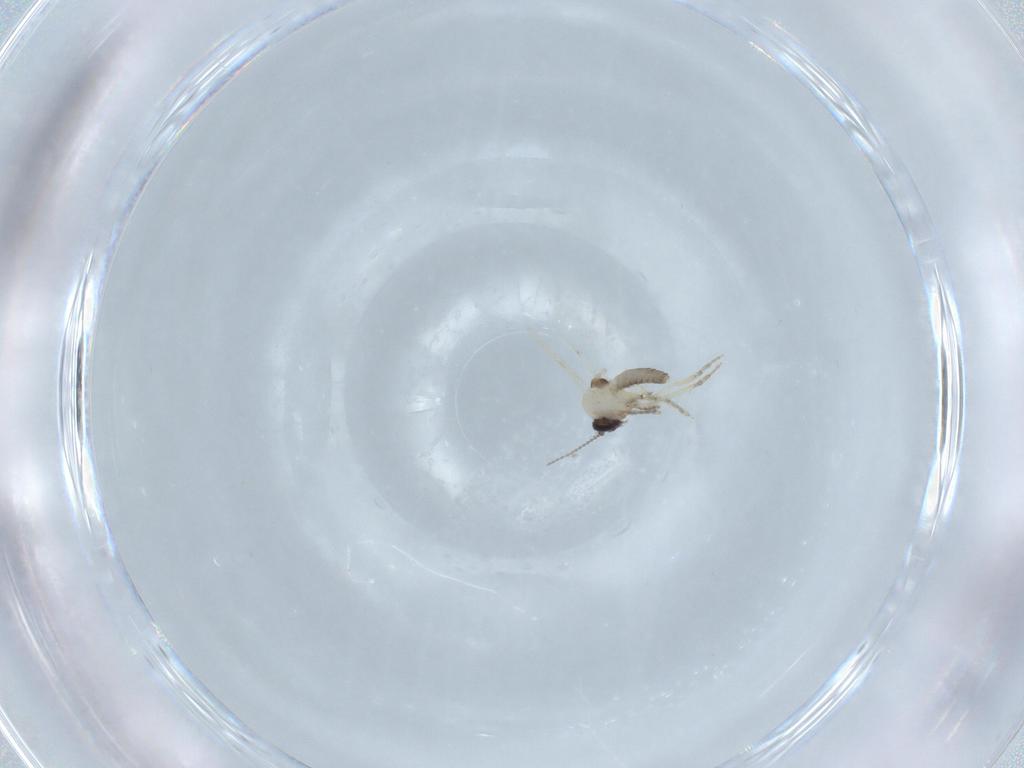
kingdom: Animalia
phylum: Arthropoda
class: Insecta
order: Diptera
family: Ceratopogonidae
